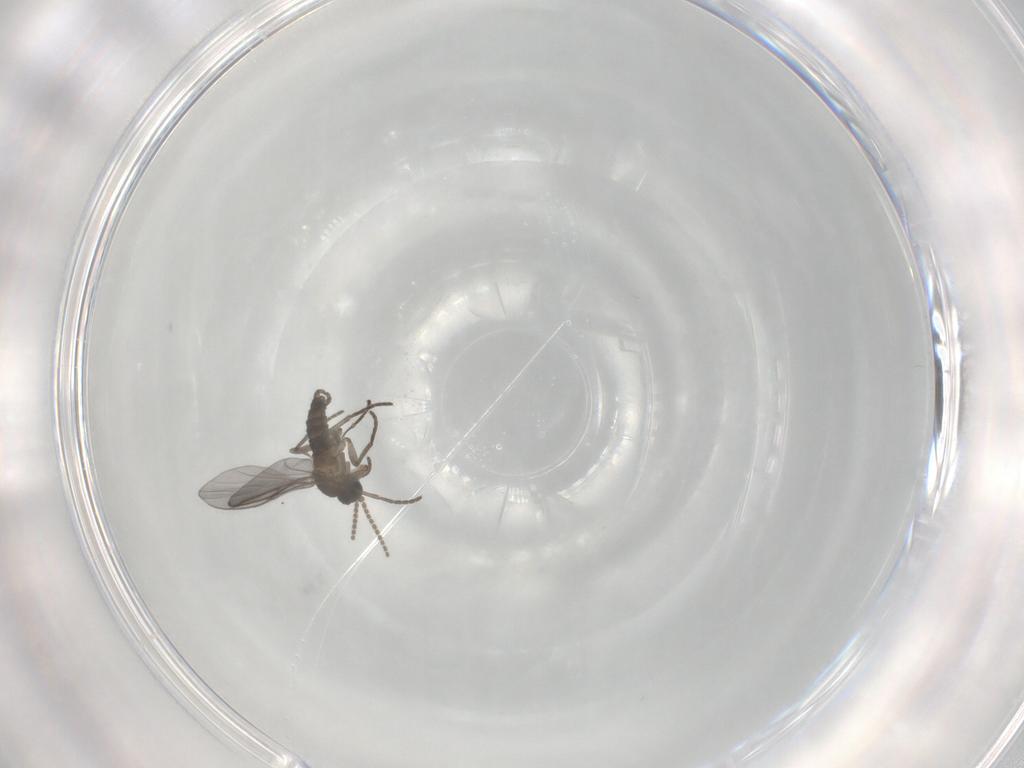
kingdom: Animalia
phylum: Arthropoda
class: Insecta
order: Diptera
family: Sciaridae
